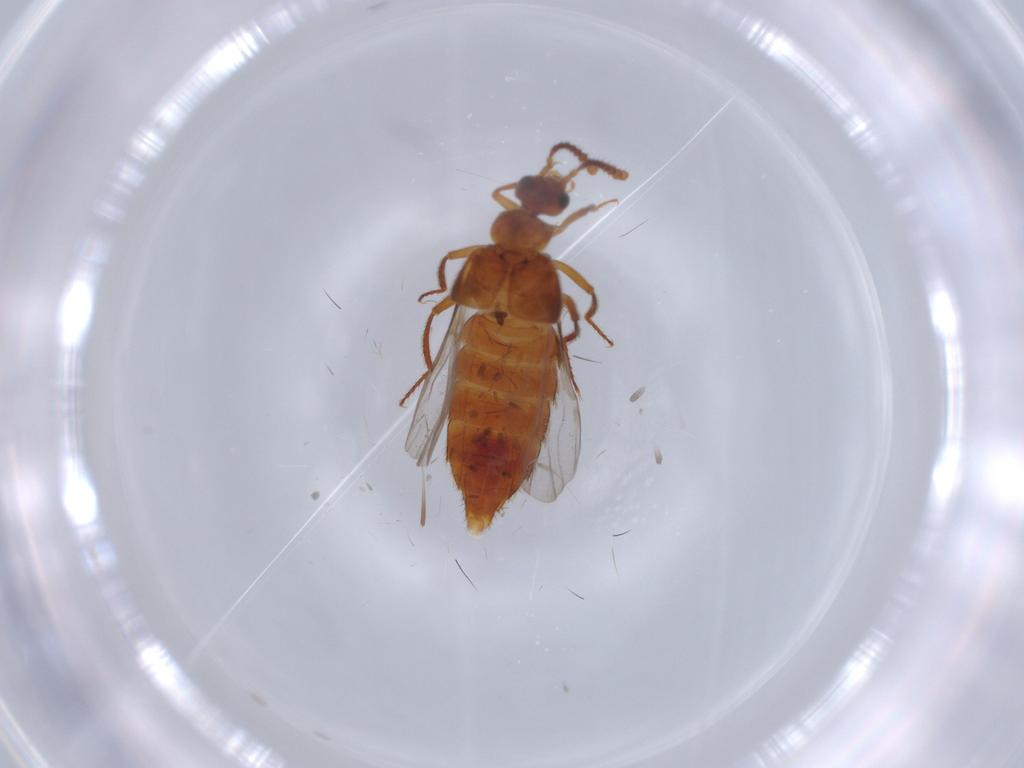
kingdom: Animalia
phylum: Arthropoda
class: Insecta
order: Coleoptera
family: Staphylinidae
